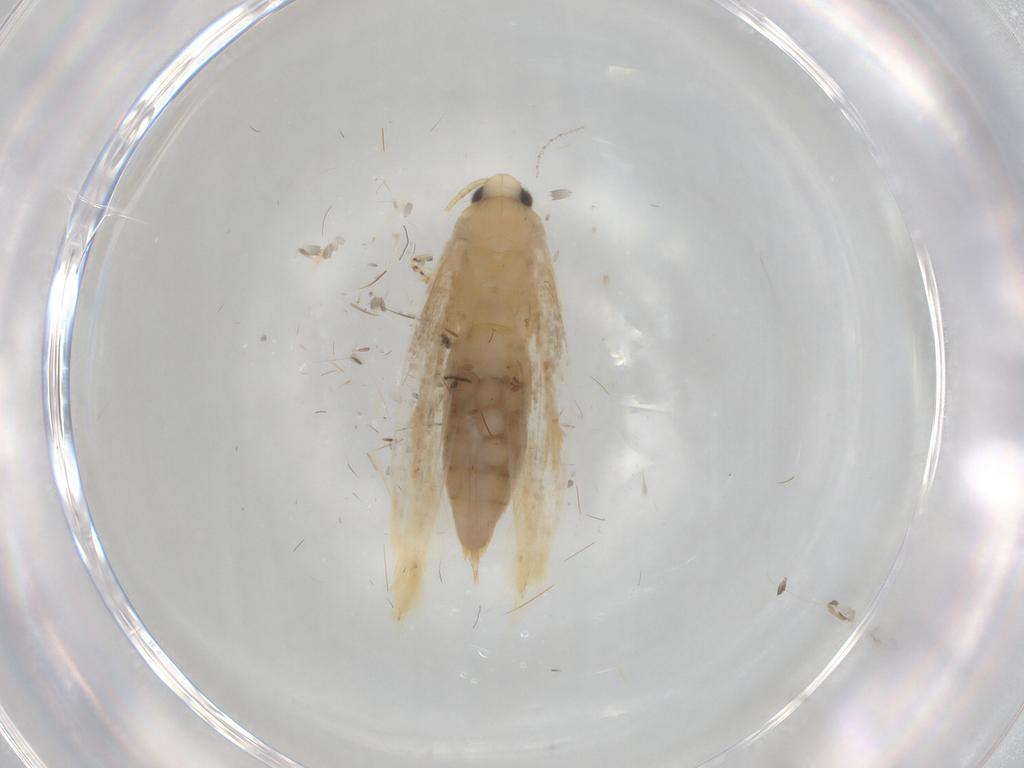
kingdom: Animalia
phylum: Arthropoda
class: Insecta
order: Lepidoptera
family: Nepticulidae
